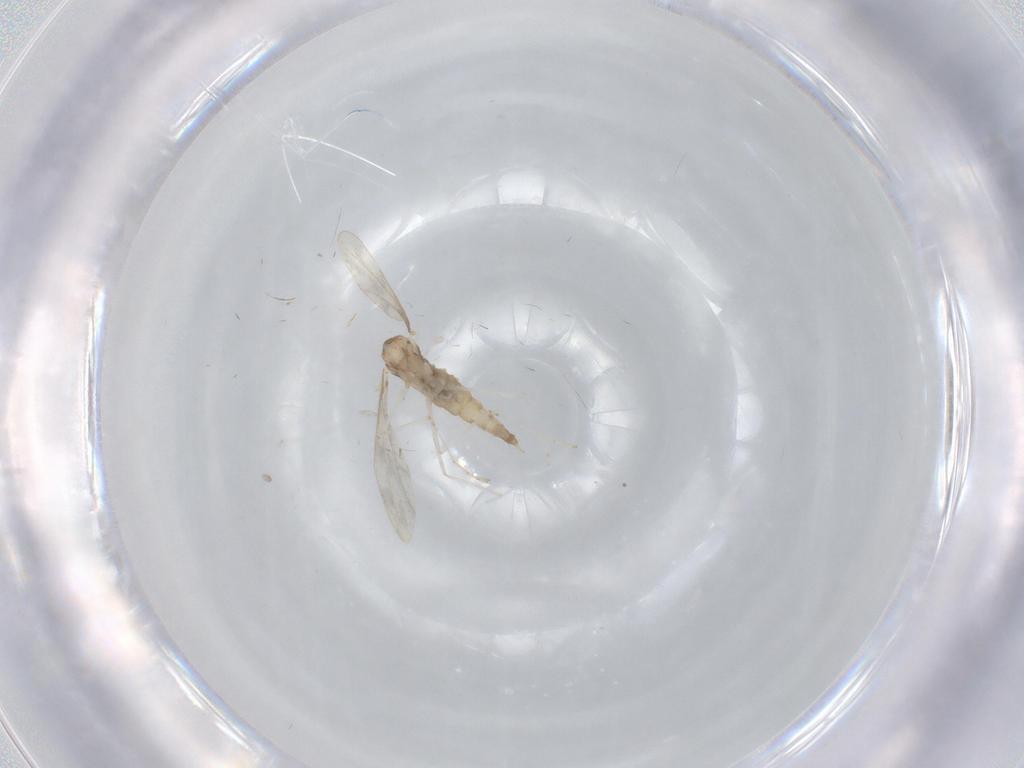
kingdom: Animalia
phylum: Arthropoda
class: Insecta
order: Diptera
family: Cecidomyiidae
